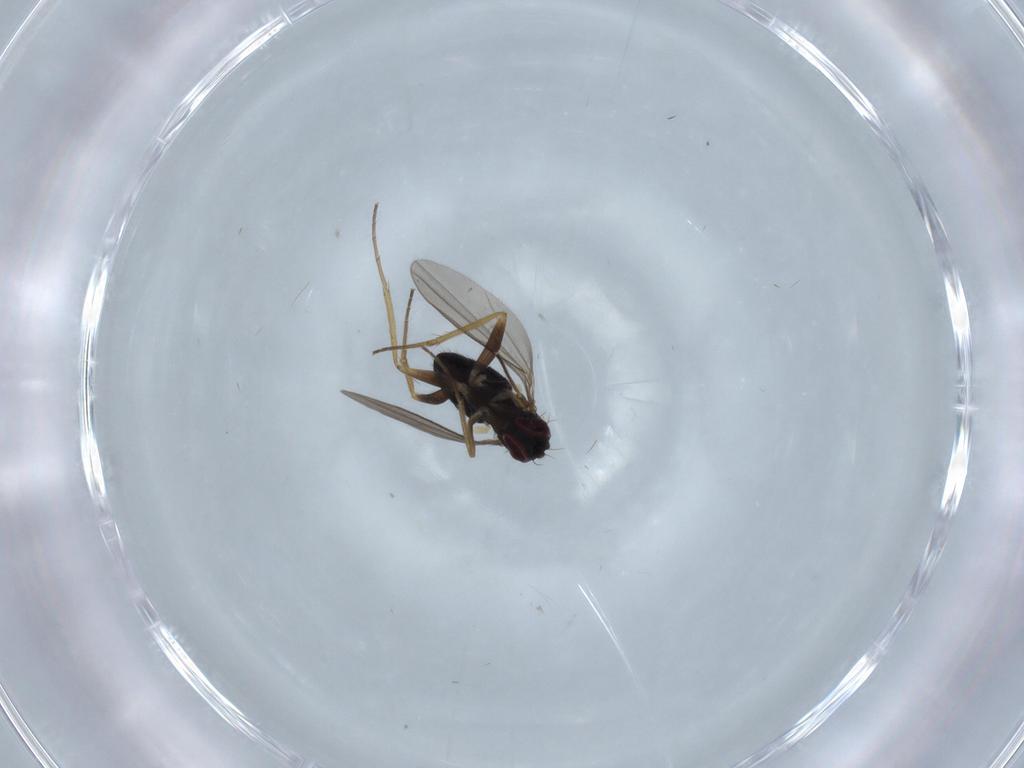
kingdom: Animalia
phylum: Arthropoda
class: Insecta
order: Diptera
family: Dolichopodidae
